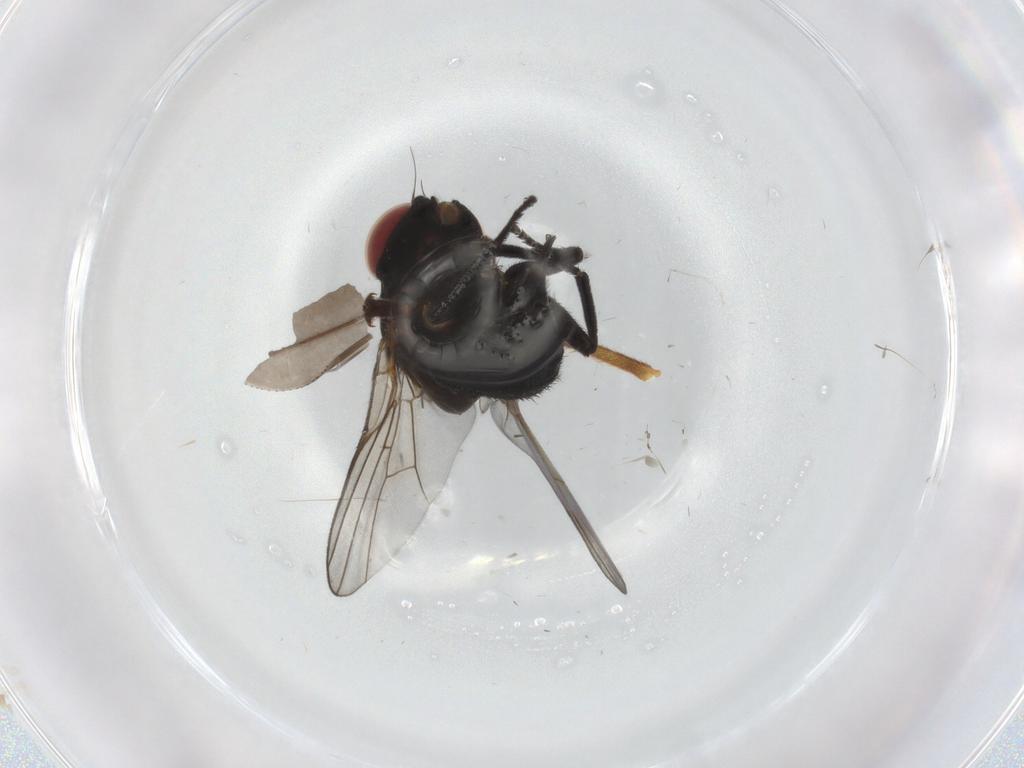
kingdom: Animalia
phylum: Arthropoda
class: Insecta
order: Diptera
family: Agromyzidae
